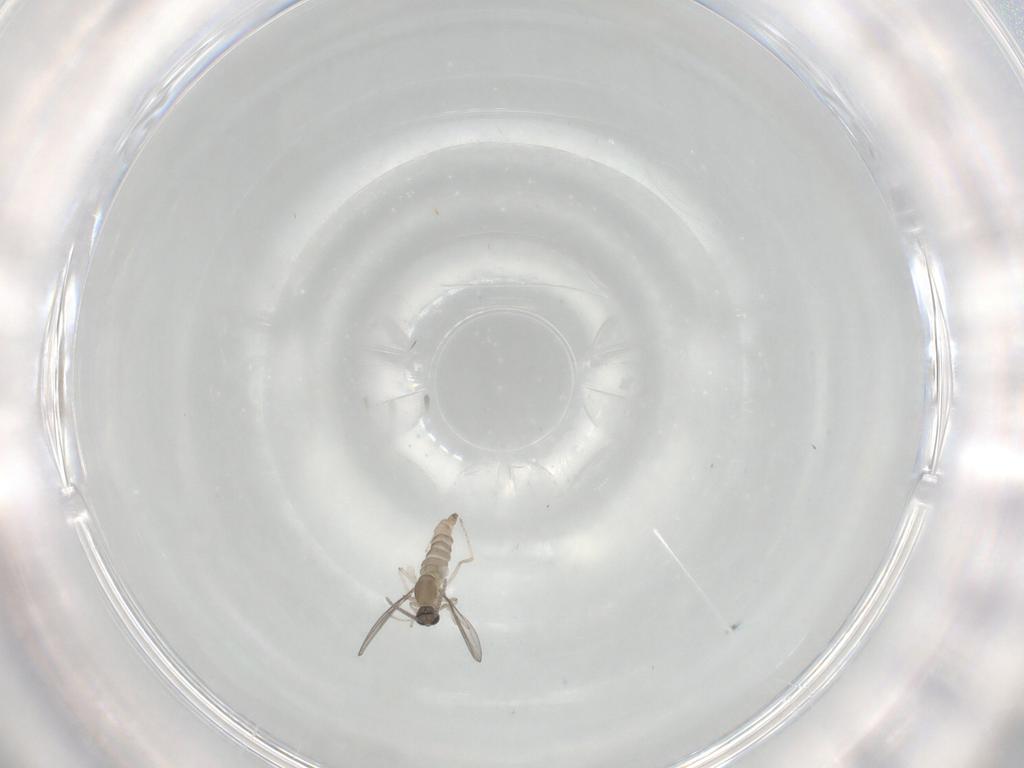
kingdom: Animalia
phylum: Arthropoda
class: Insecta
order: Diptera
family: Cecidomyiidae
